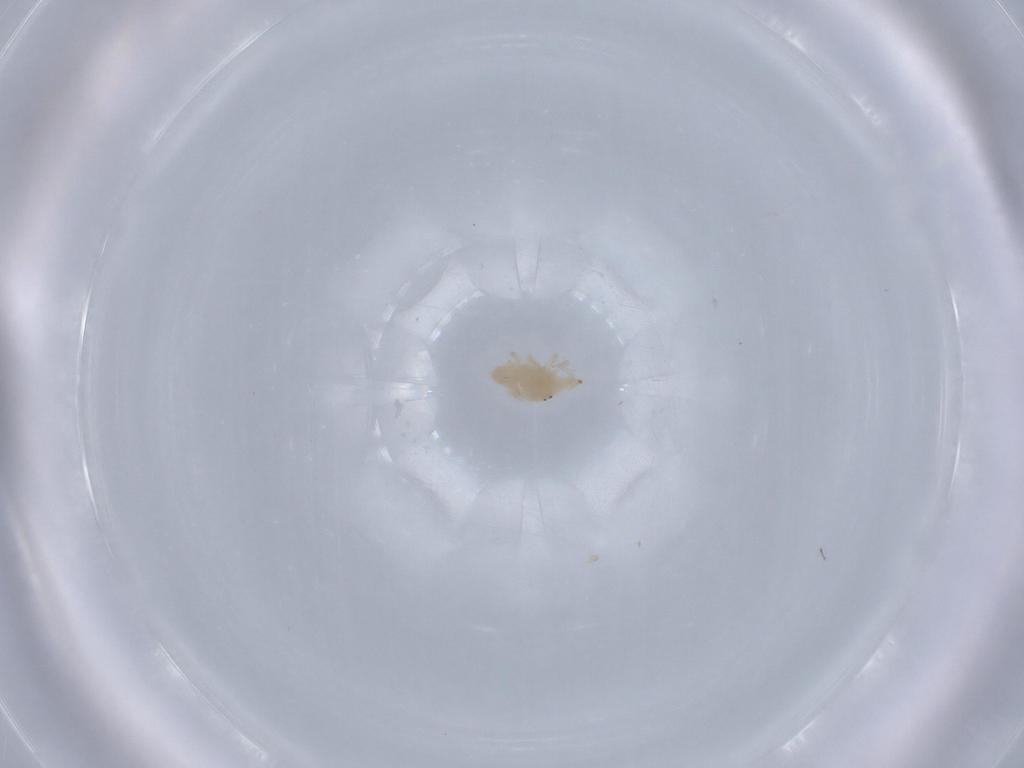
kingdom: Animalia
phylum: Arthropoda
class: Arachnida
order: Trombidiformes
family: Bdellidae
